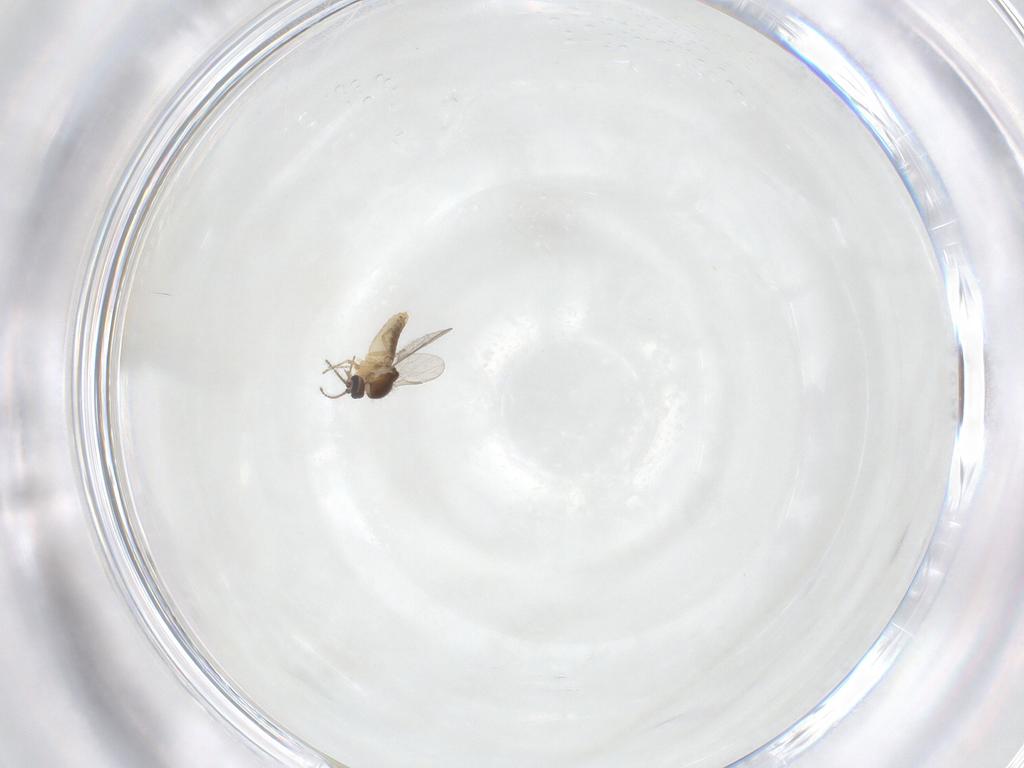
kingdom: Animalia
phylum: Arthropoda
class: Insecta
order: Diptera
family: Ceratopogonidae
